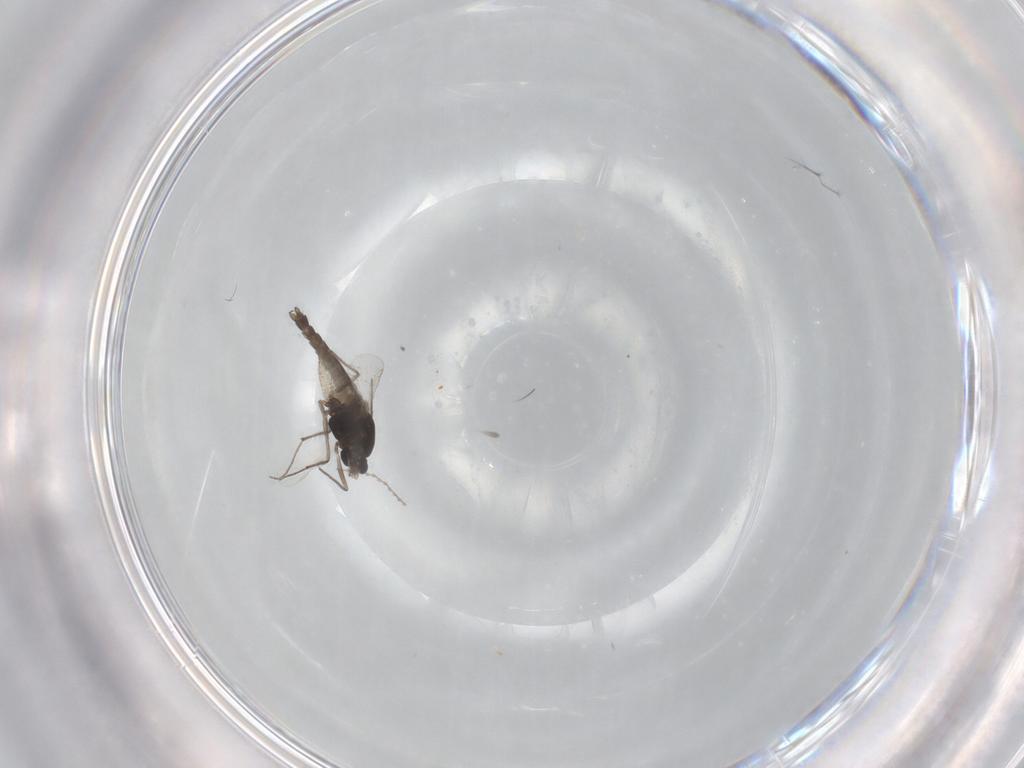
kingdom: Animalia
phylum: Arthropoda
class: Insecta
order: Diptera
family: Chironomidae
